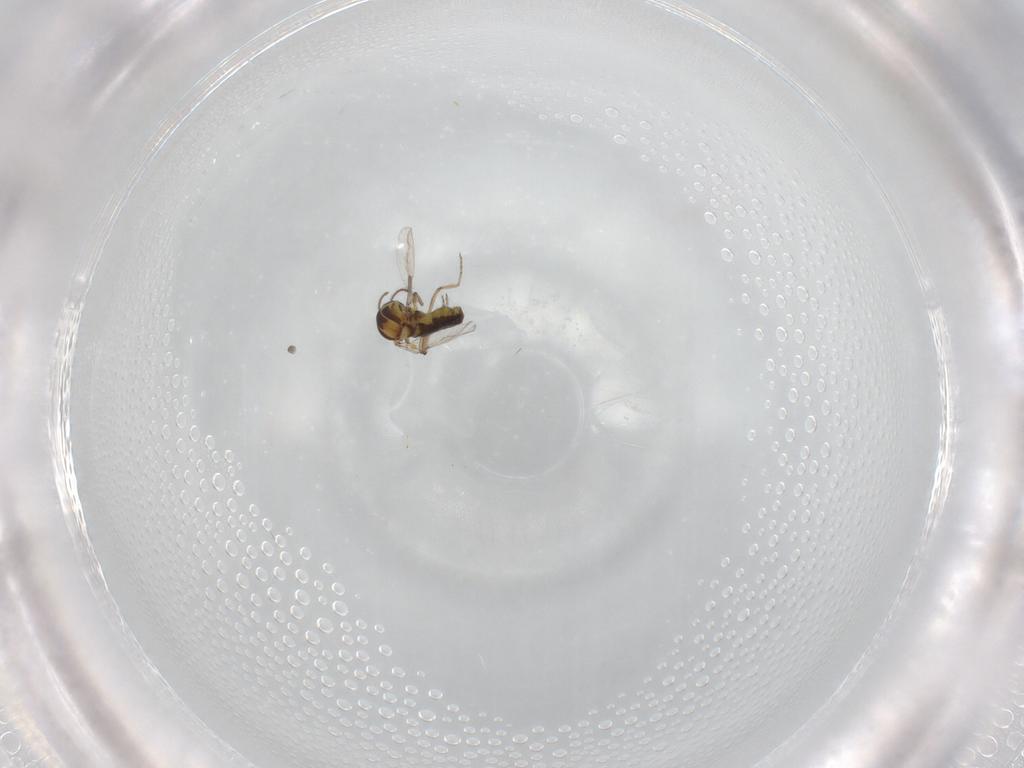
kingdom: Animalia
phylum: Arthropoda
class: Insecta
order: Diptera
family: Ceratopogonidae
